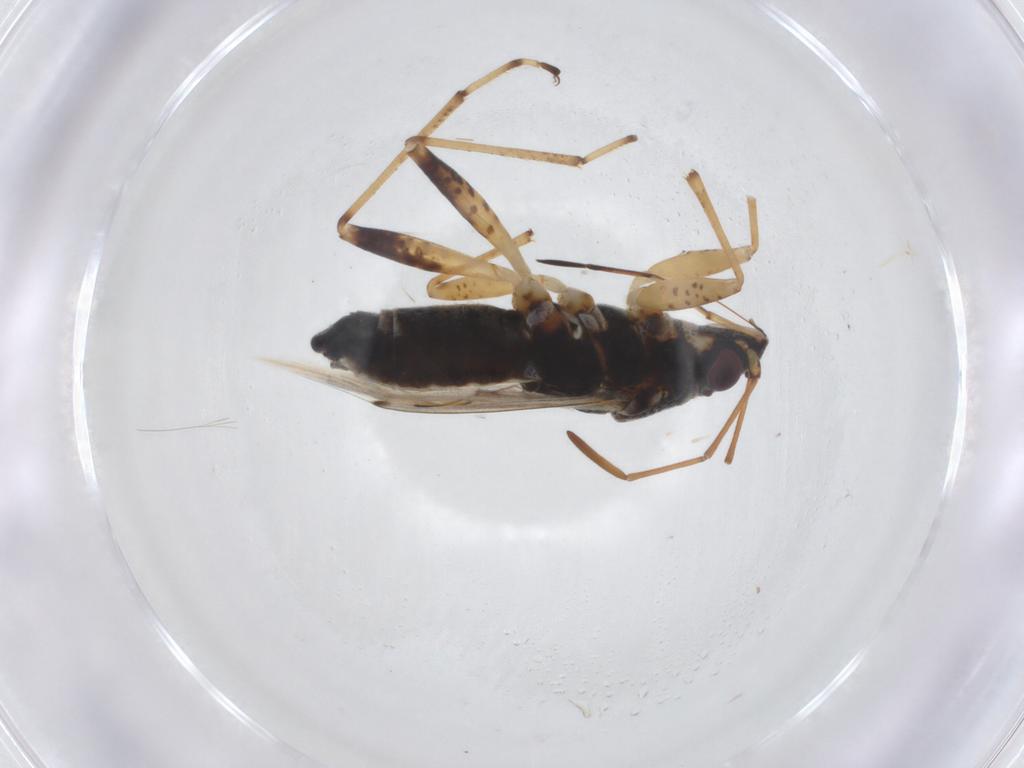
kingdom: Animalia
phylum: Arthropoda
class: Insecta
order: Hemiptera
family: Lygaeidae
